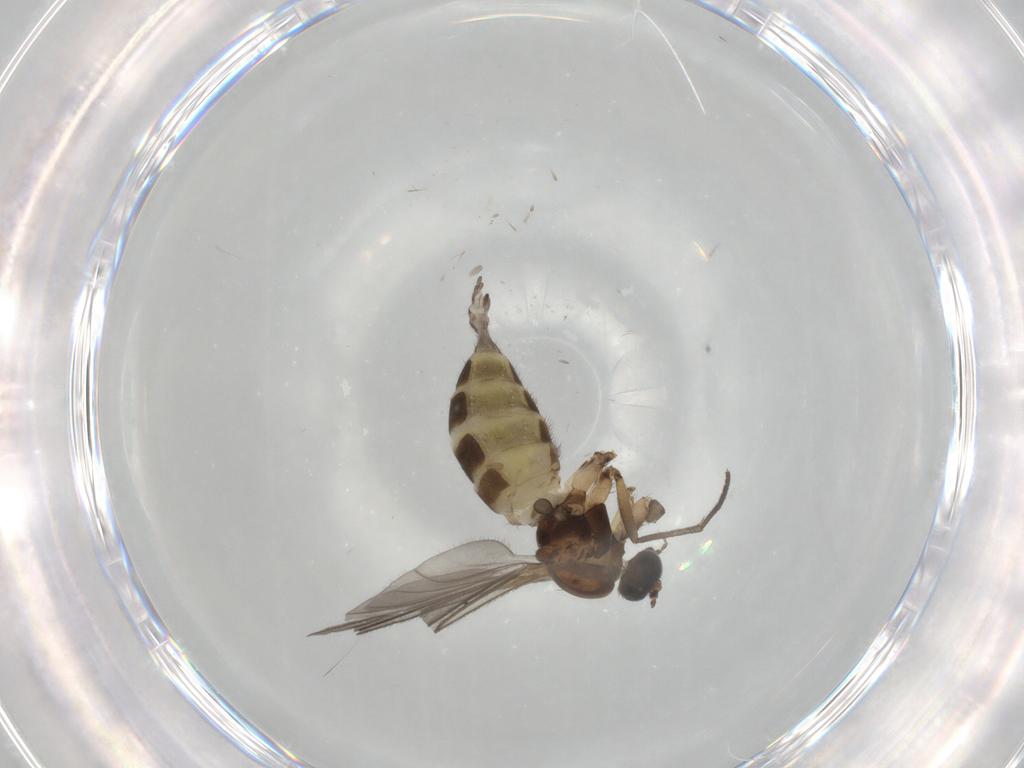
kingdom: Animalia
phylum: Arthropoda
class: Insecta
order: Diptera
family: Sciaridae
